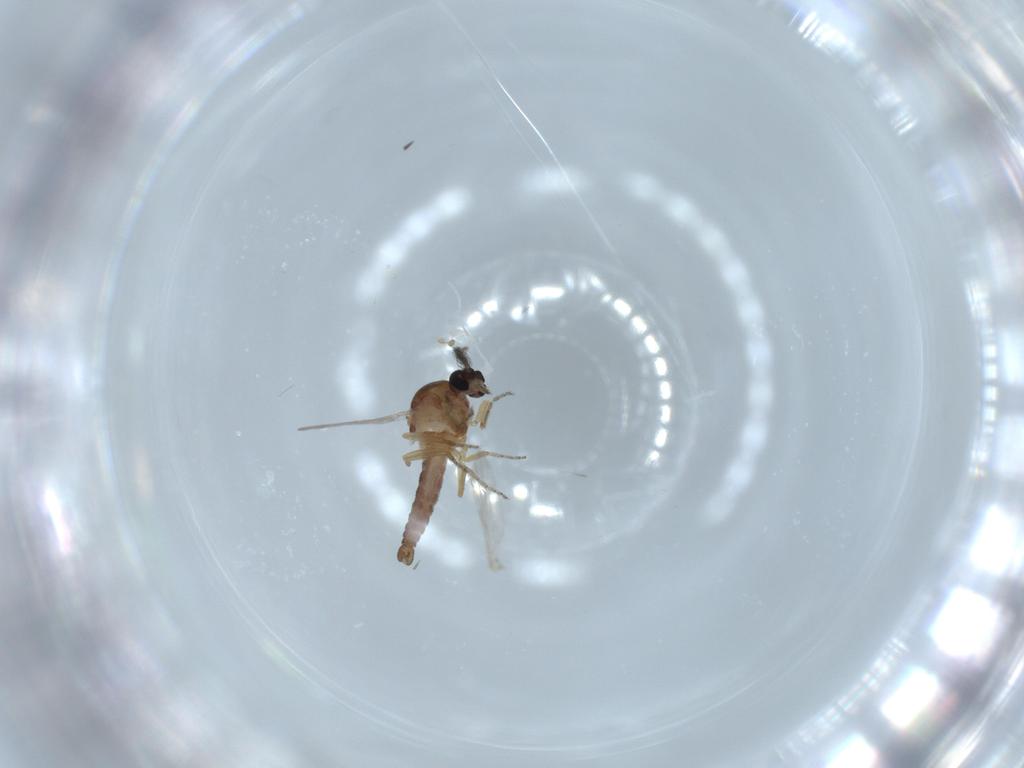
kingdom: Animalia
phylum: Arthropoda
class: Insecta
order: Diptera
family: Ceratopogonidae
